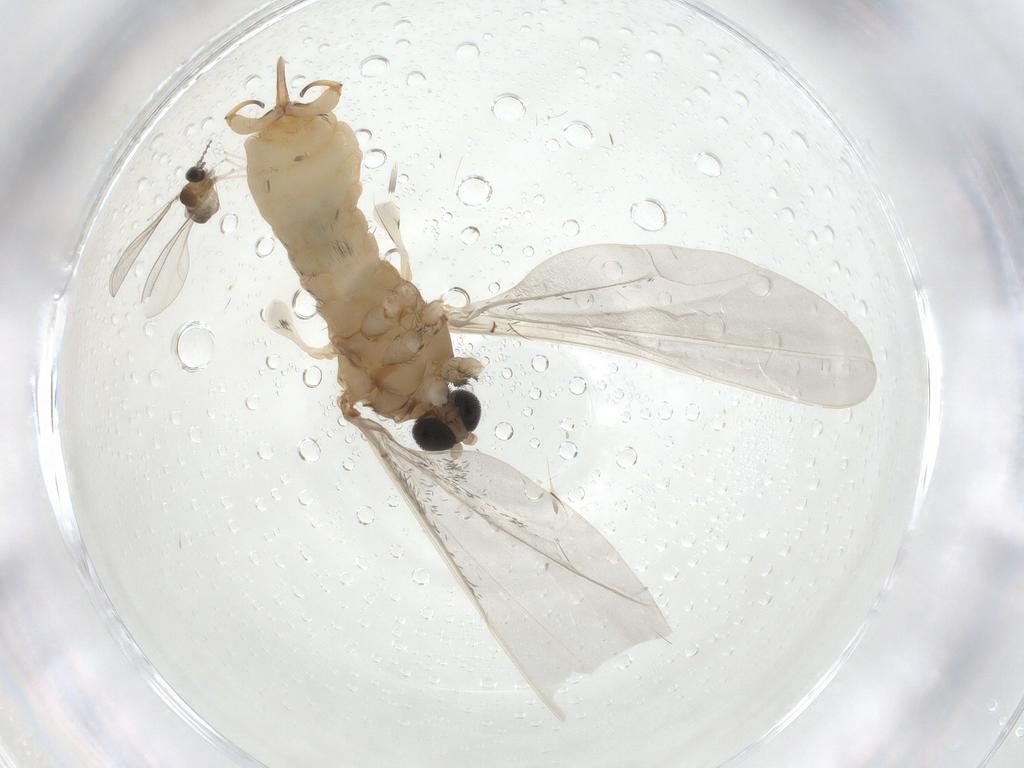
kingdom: Animalia
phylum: Arthropoda
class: Insecta
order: Diptera
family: Cecidomyiidae
